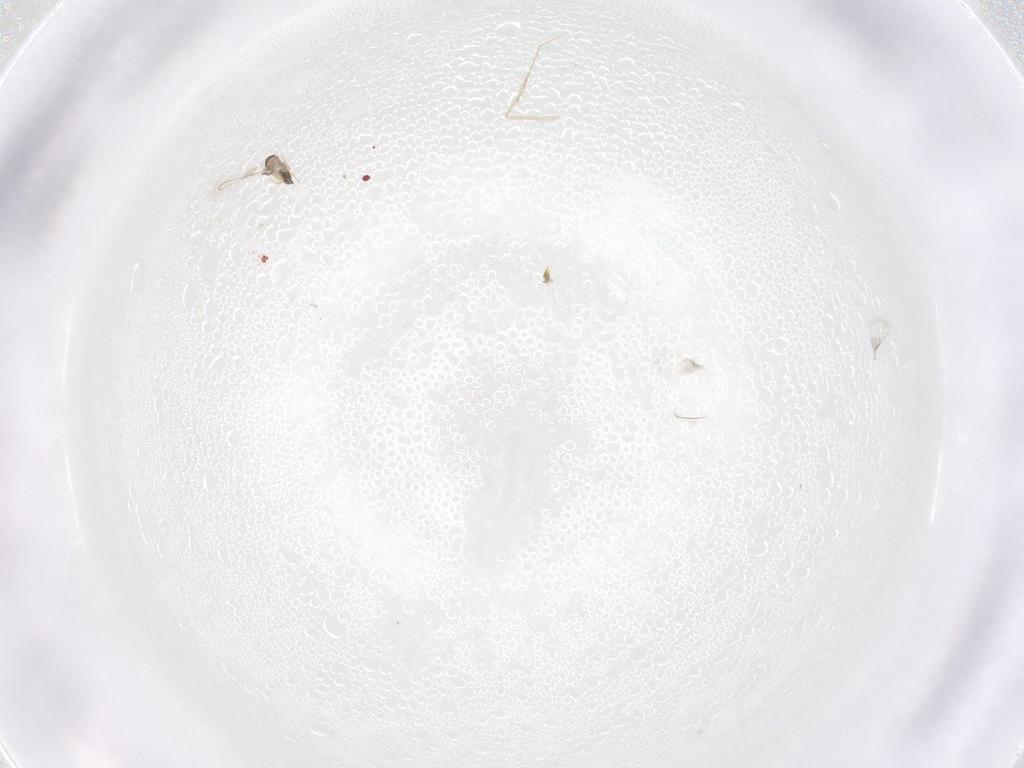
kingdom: Animalia
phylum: Arthropoda
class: Insecta
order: Hymenoptera
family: Trichogrammatidae
